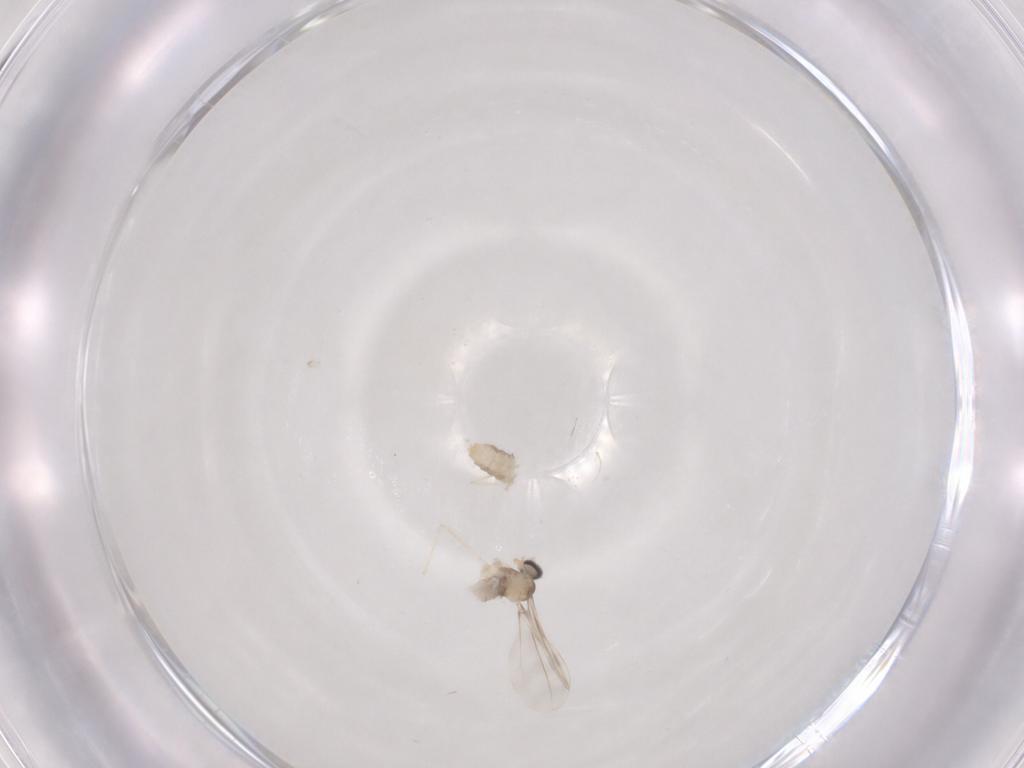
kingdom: Animalia
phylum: Arthropoda
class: Insecta
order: Diptera
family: Cecidomyiidae
